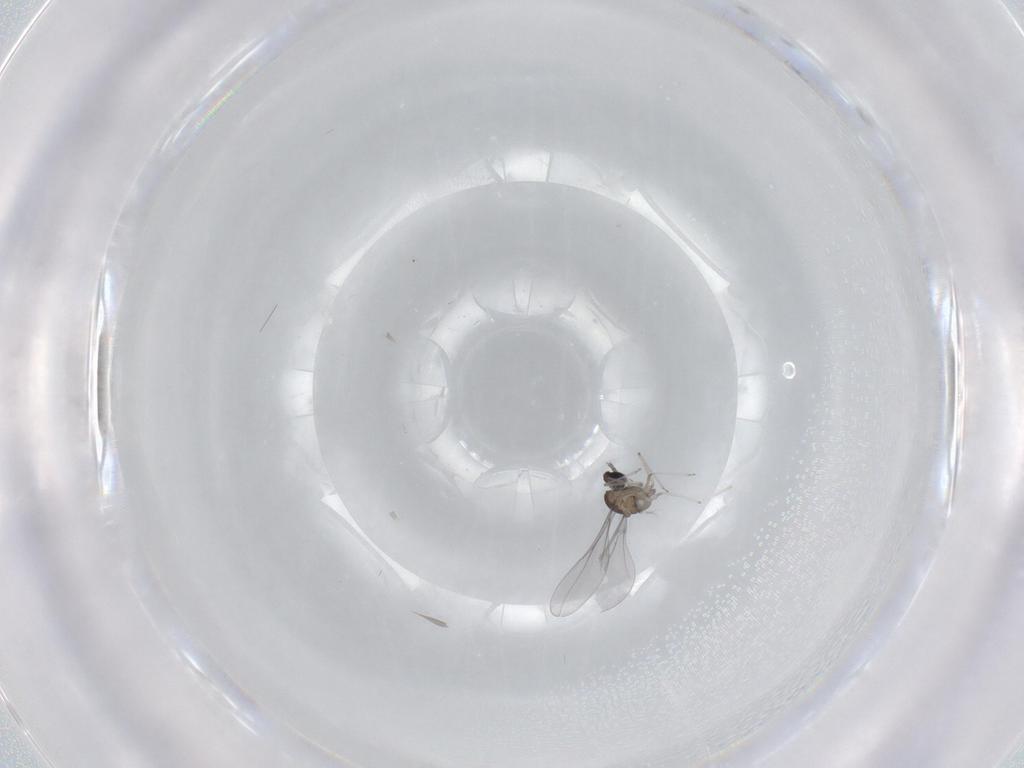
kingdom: Animalia
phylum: Arthropoda
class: Insecta
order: Diptera
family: Cecidomyiidae
